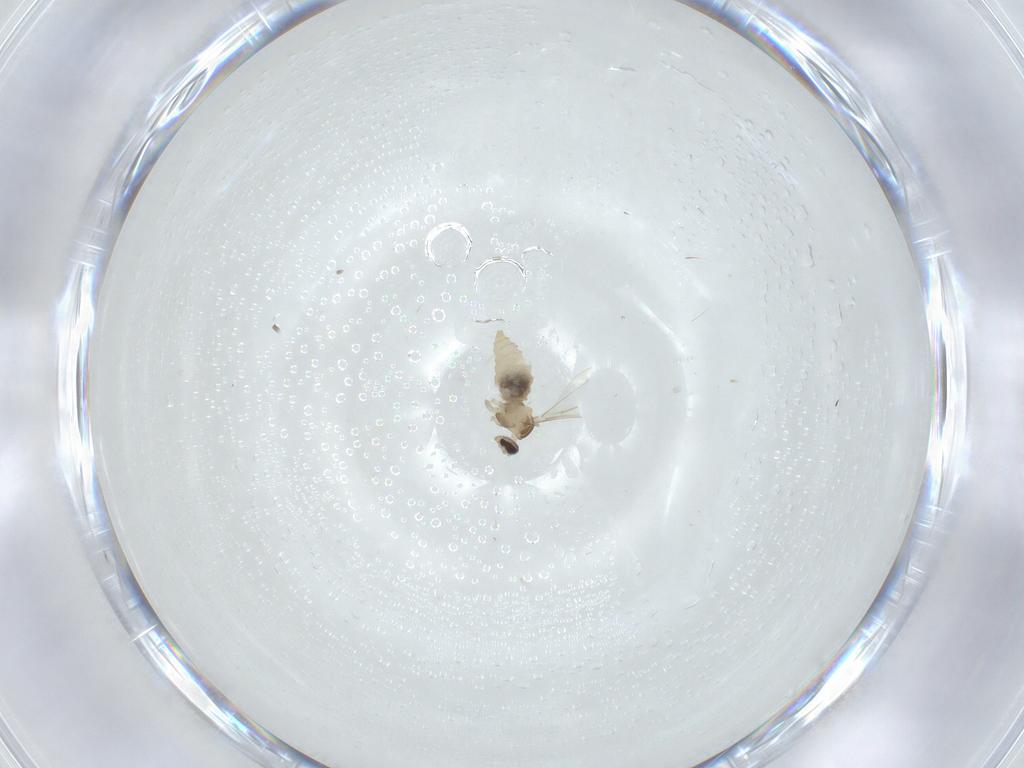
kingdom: Animalia
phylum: Arthropoda
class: Insecta
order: Diptera
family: Cecidomyiidae
